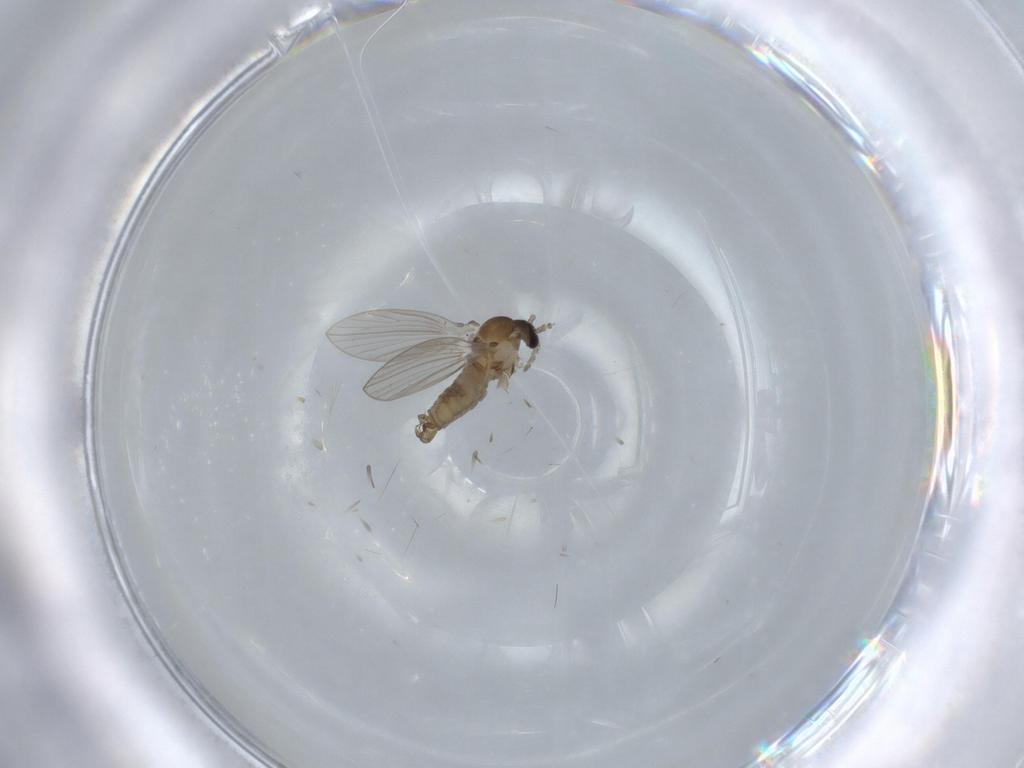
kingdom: Animalia
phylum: Arthropoda
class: Insecta
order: Diptera
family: Psychodidae
